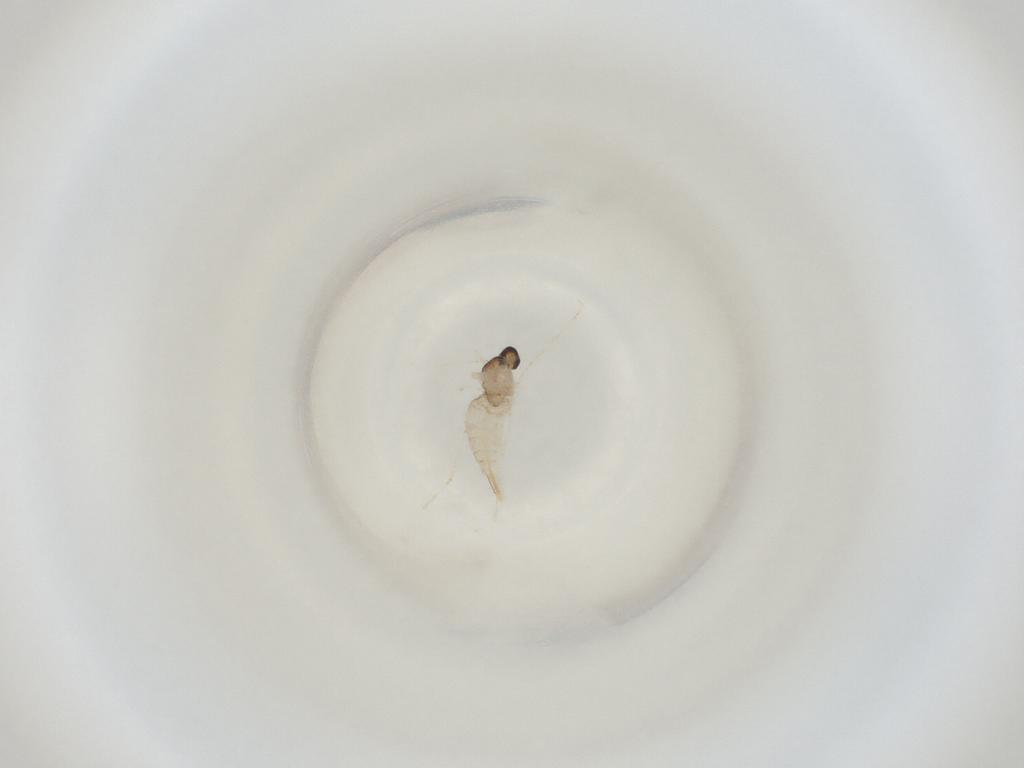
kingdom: Animalia
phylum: Arthropoda
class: Insecta
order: Diptera
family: Cecidomyiidae
